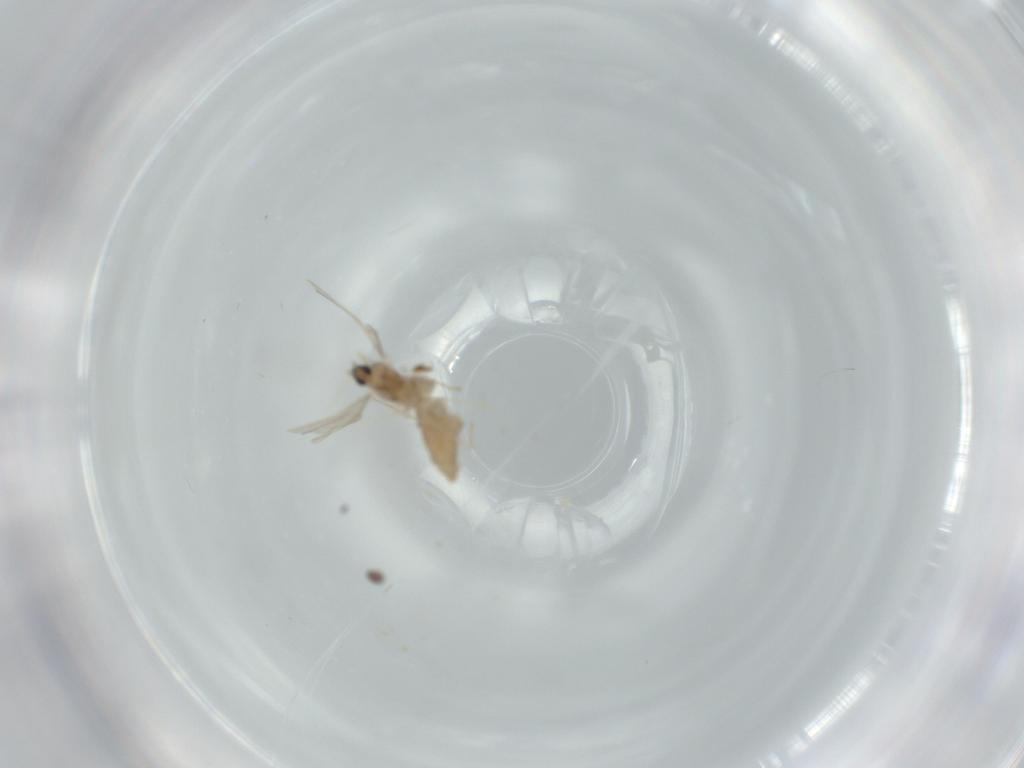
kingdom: Animalia
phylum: Arthropoda
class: Insecta
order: Diptera
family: Cecidomyiidae
